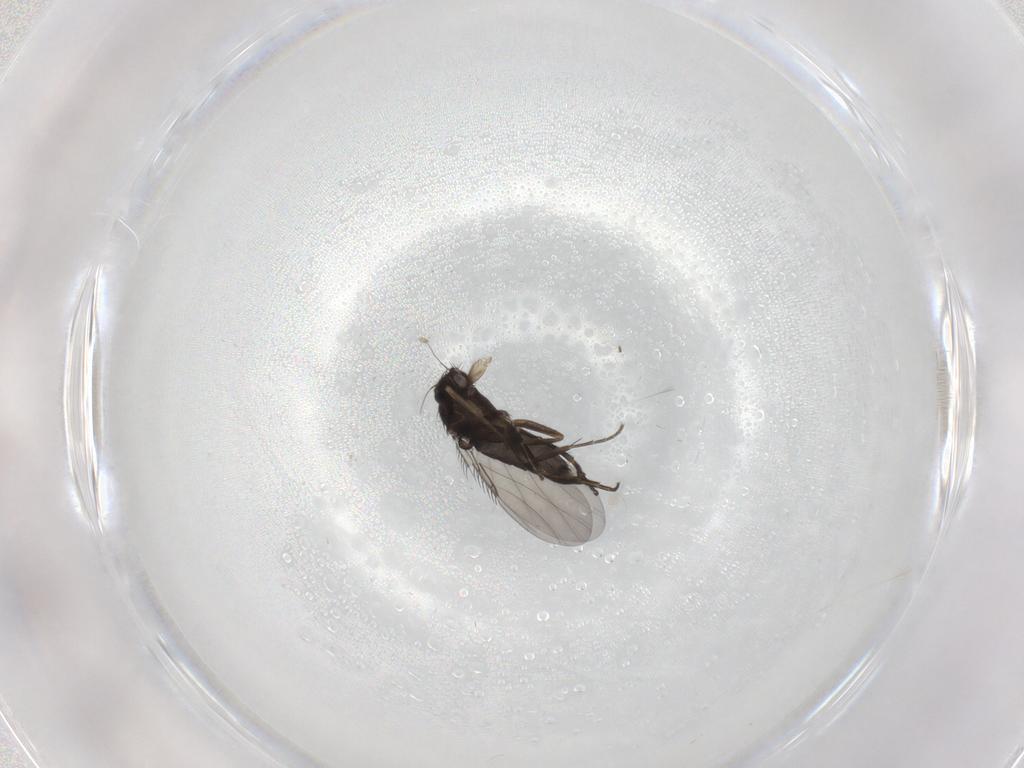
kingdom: Animalia
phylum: Arthropoda
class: Insecta
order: Diptera
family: Phoridae
